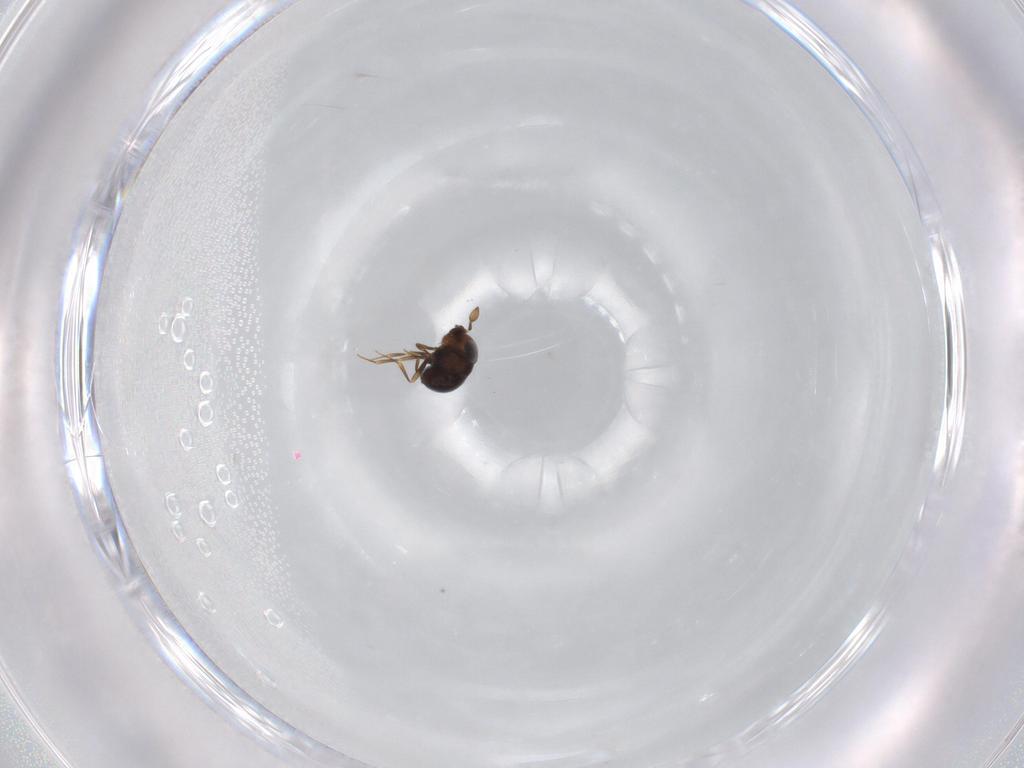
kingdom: Animalia
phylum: Arthropoda
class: Insecta
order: Hymenoptera
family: Scelionidae
